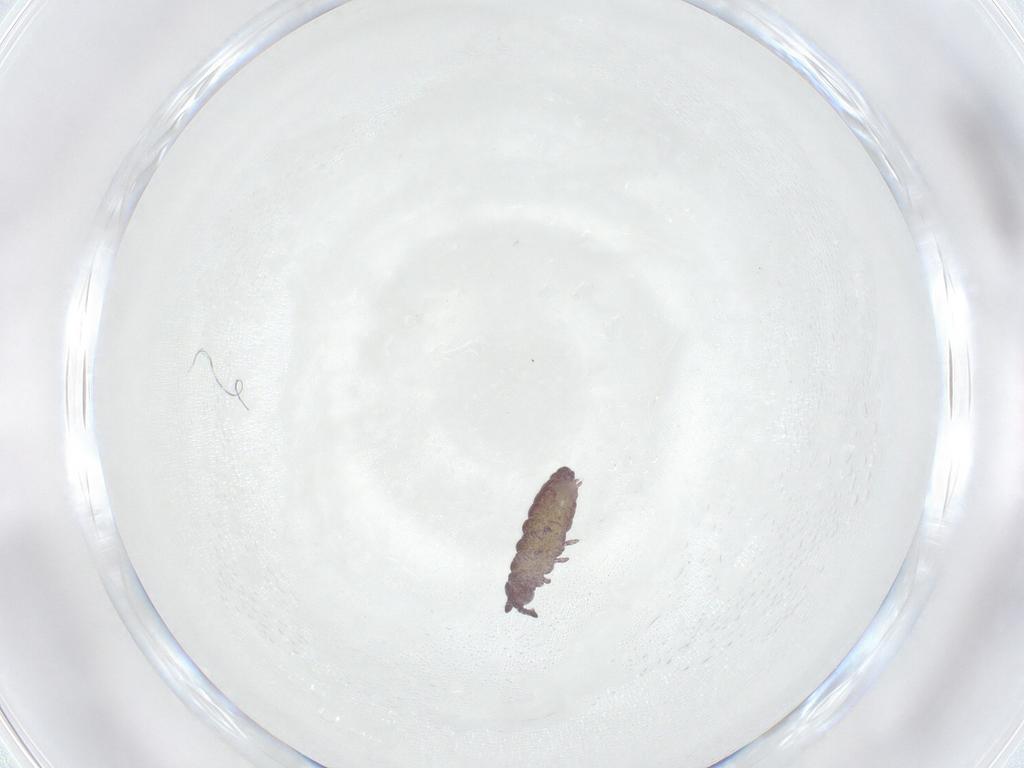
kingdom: Animalia
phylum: Arthropoda
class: Collembola
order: Poduromorpha
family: Hypogastruridae
